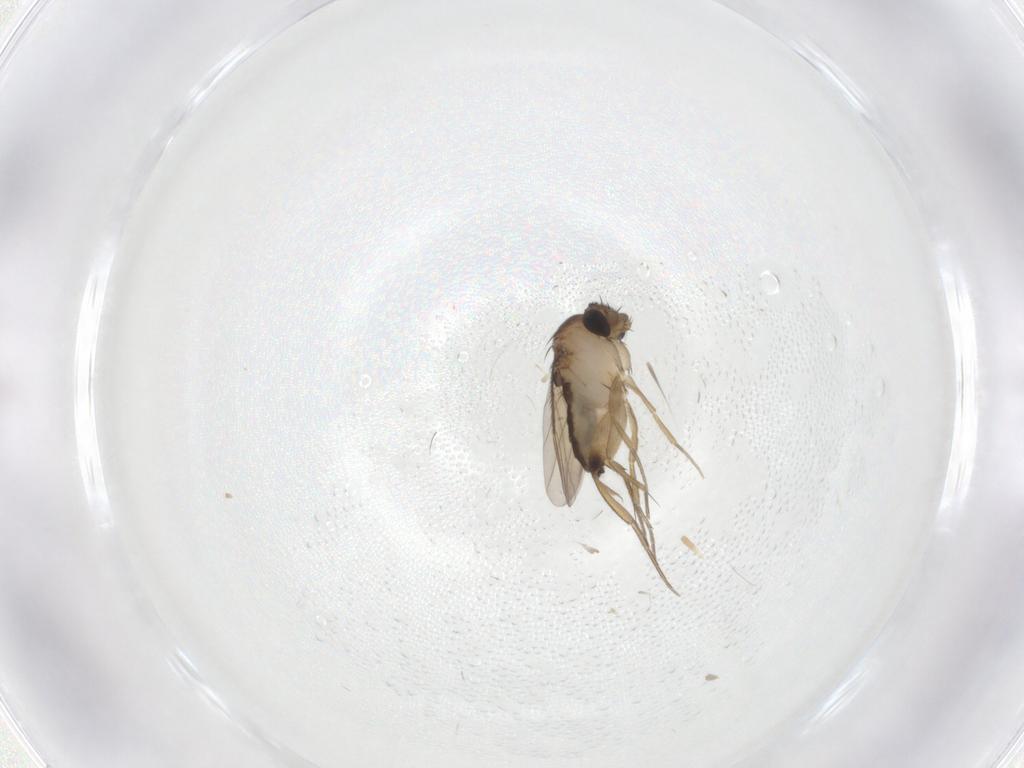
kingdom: Animalia
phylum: Arthropoda
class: Insecta
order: Diptera
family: Phoridae
